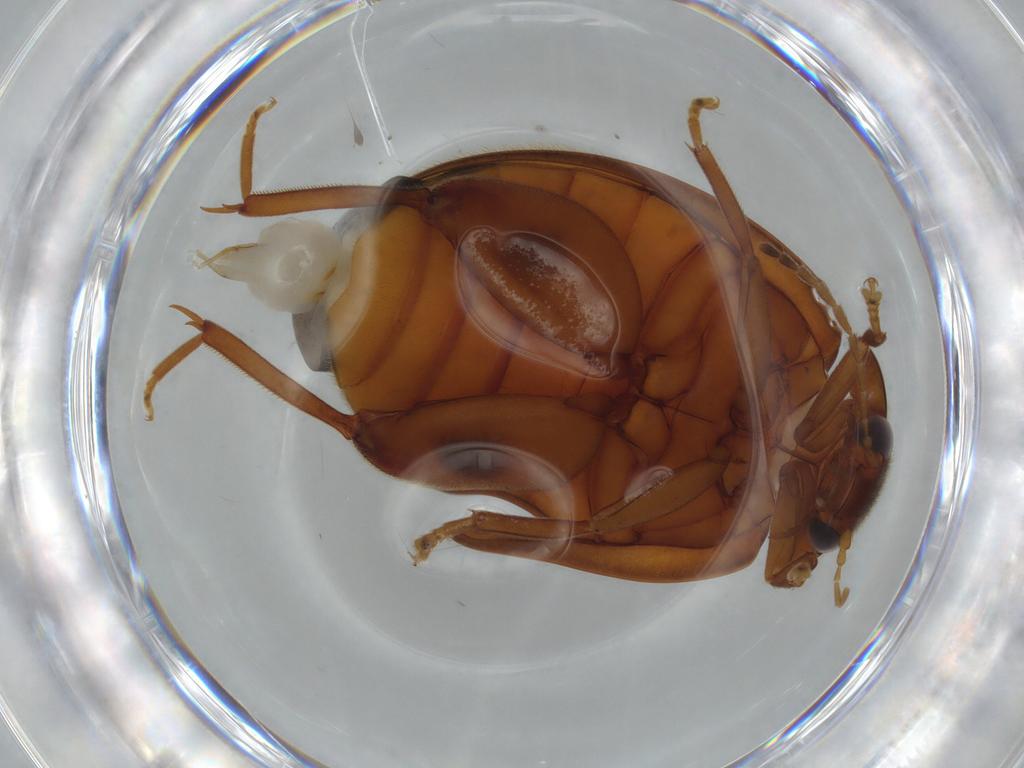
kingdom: Animalia
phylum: Arthropoda
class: Insecta
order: Coleoptera
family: Scirtidae
